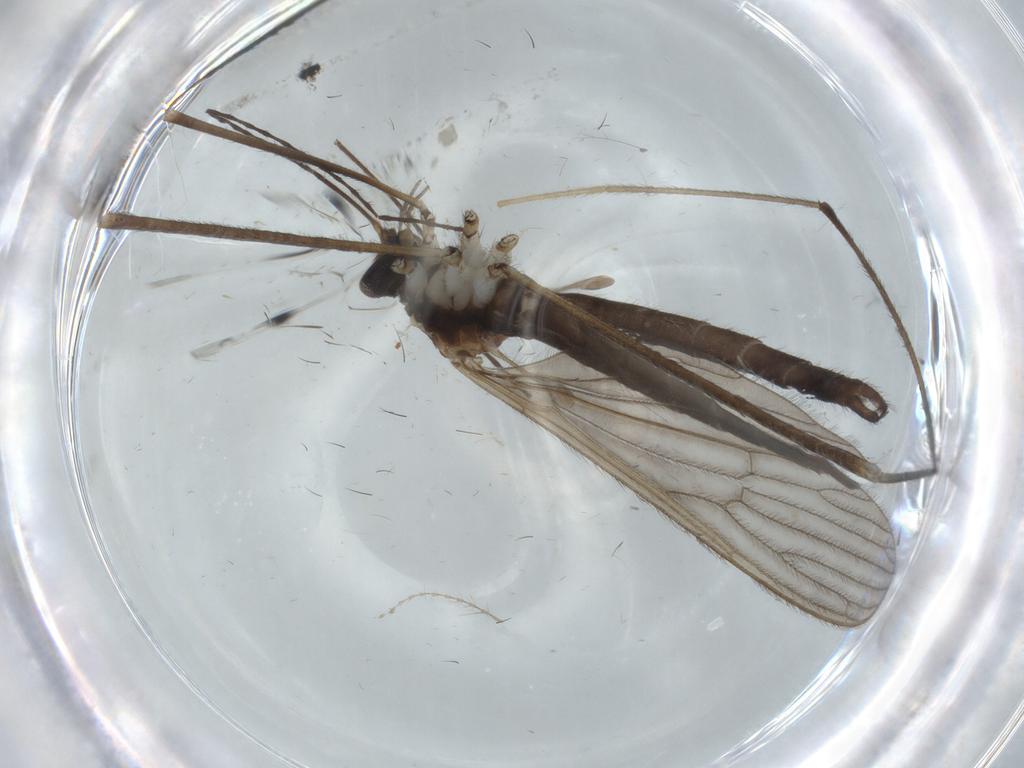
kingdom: Animalia
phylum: Arthropoda
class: Insecta
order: Diptera
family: Cecidomyiidae
